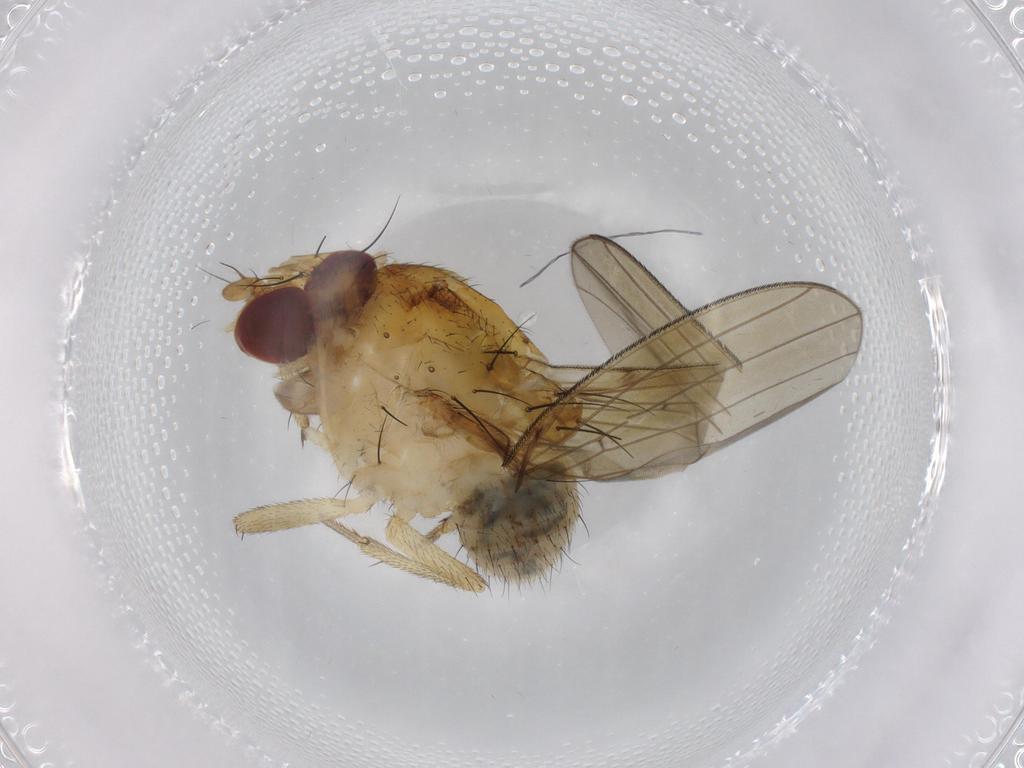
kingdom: Animalia
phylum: Arthropoda
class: Insecta
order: Diptera
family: Lauxaniidae
